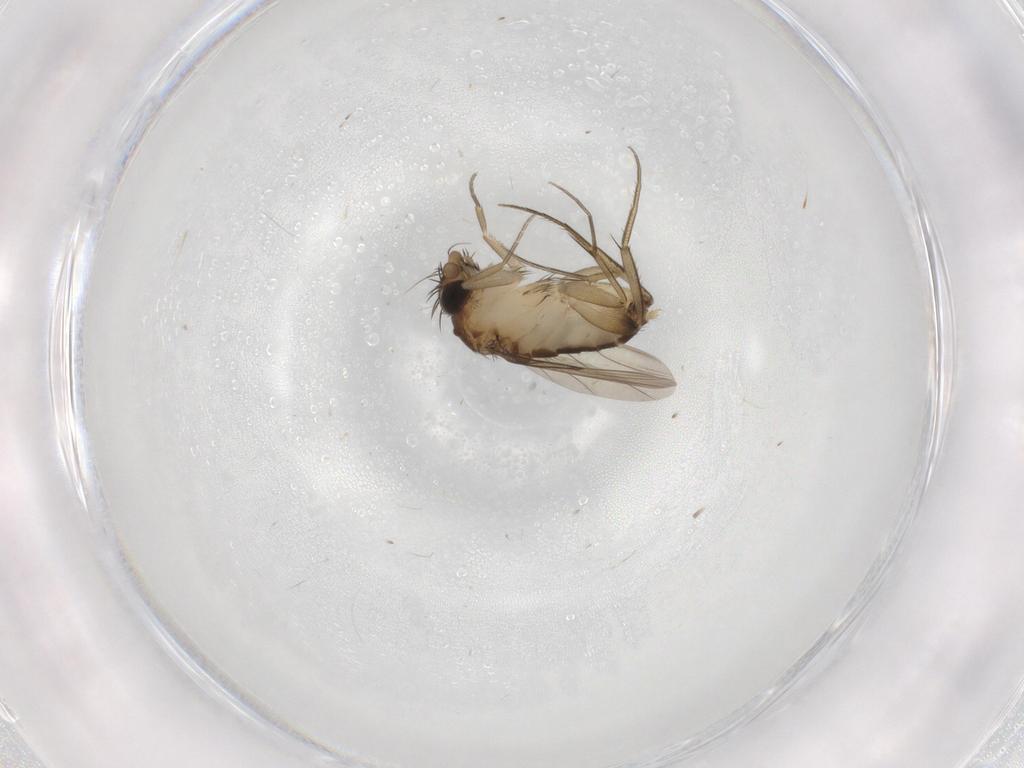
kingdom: Animalia
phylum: Arthropoda
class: Insecta
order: Diptera
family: Phoridae
